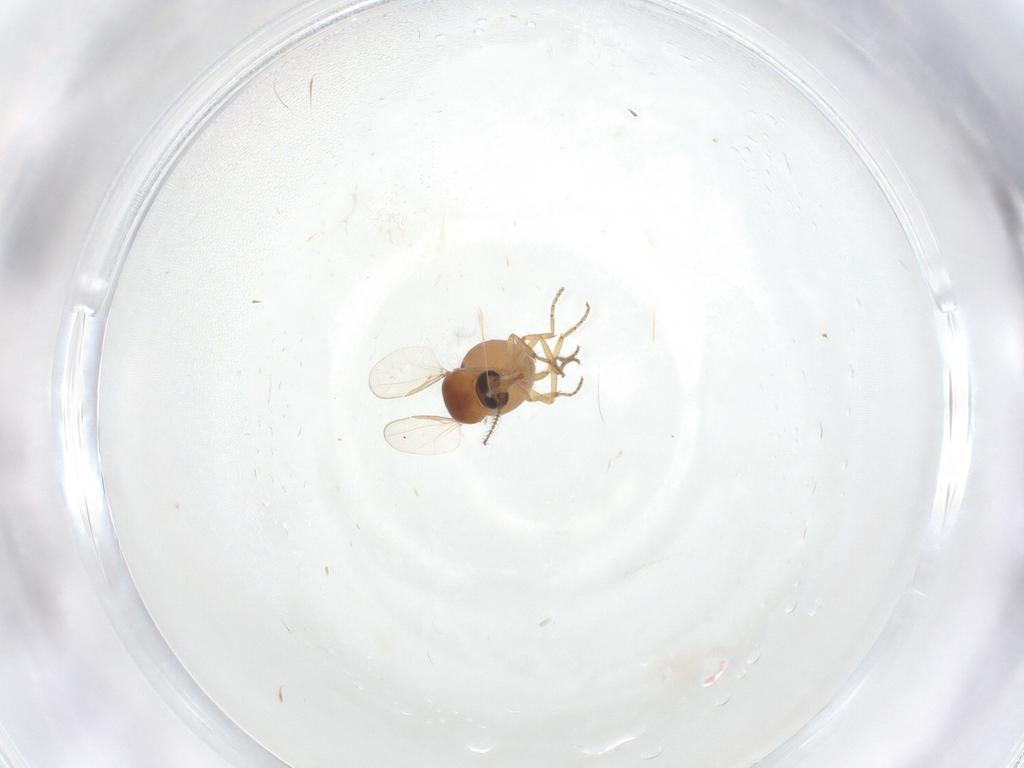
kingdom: Animalia
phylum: Arthropoda
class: Insecta
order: Diptera
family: Ceratopogonidae
